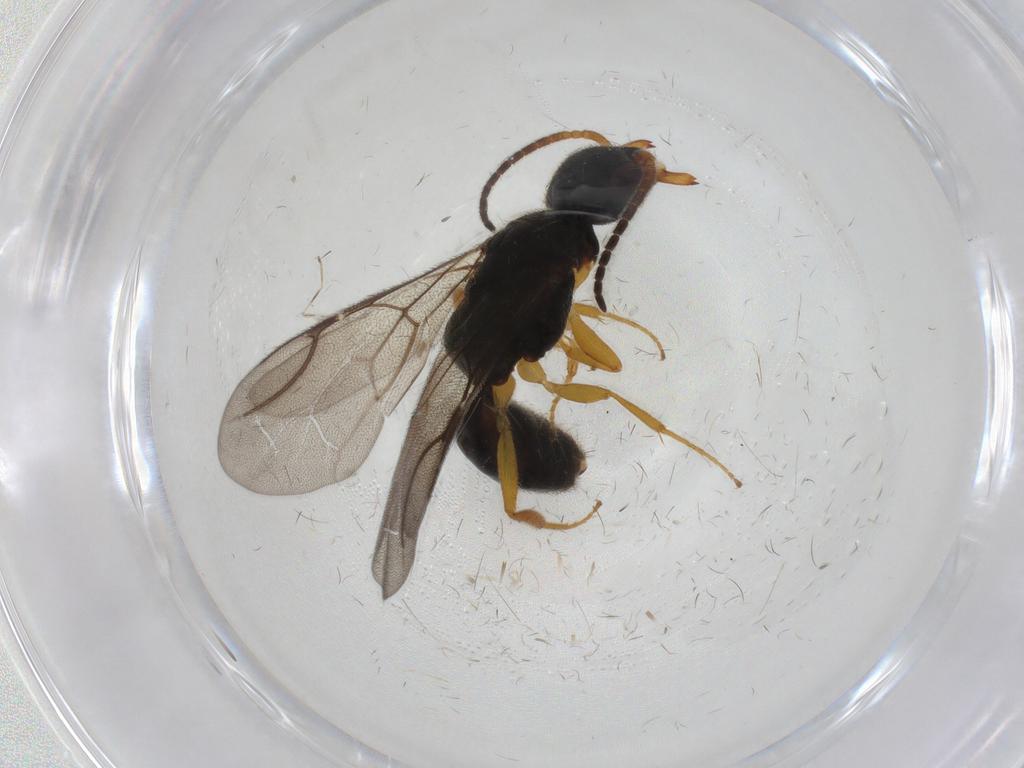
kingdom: Animalia
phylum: Arthropoda
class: Insecta
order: Hymenoptera
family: Bethylidae
